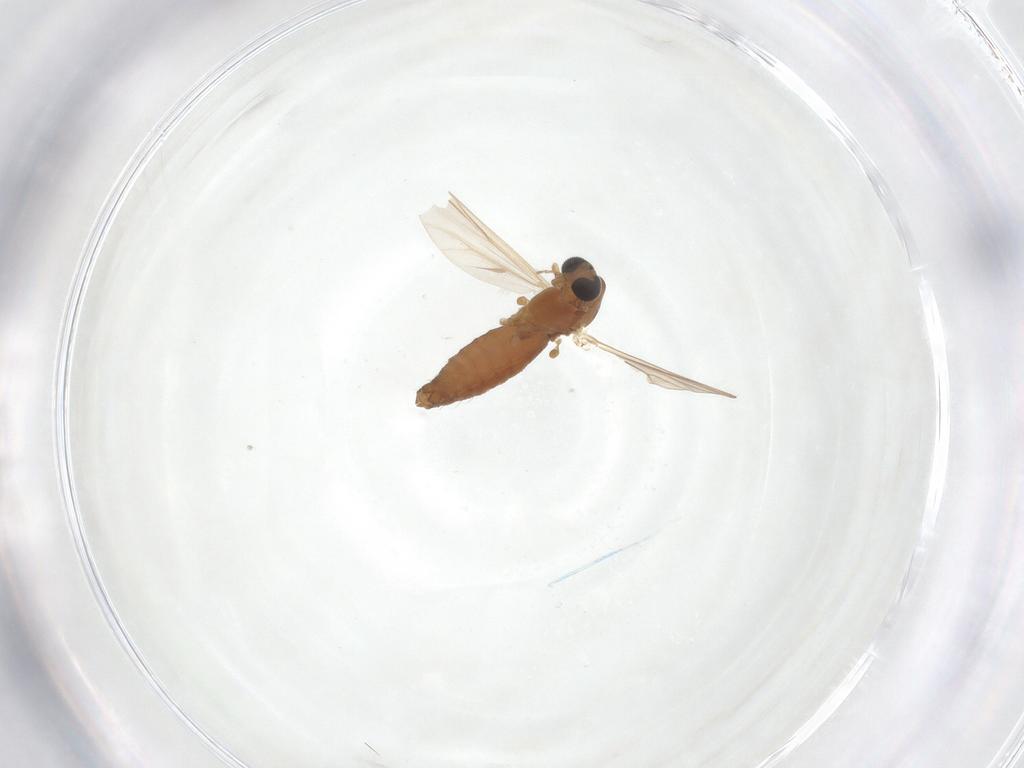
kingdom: Animalia
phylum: Arthropoda
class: Insecta
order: Diptera
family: Chironomidae
